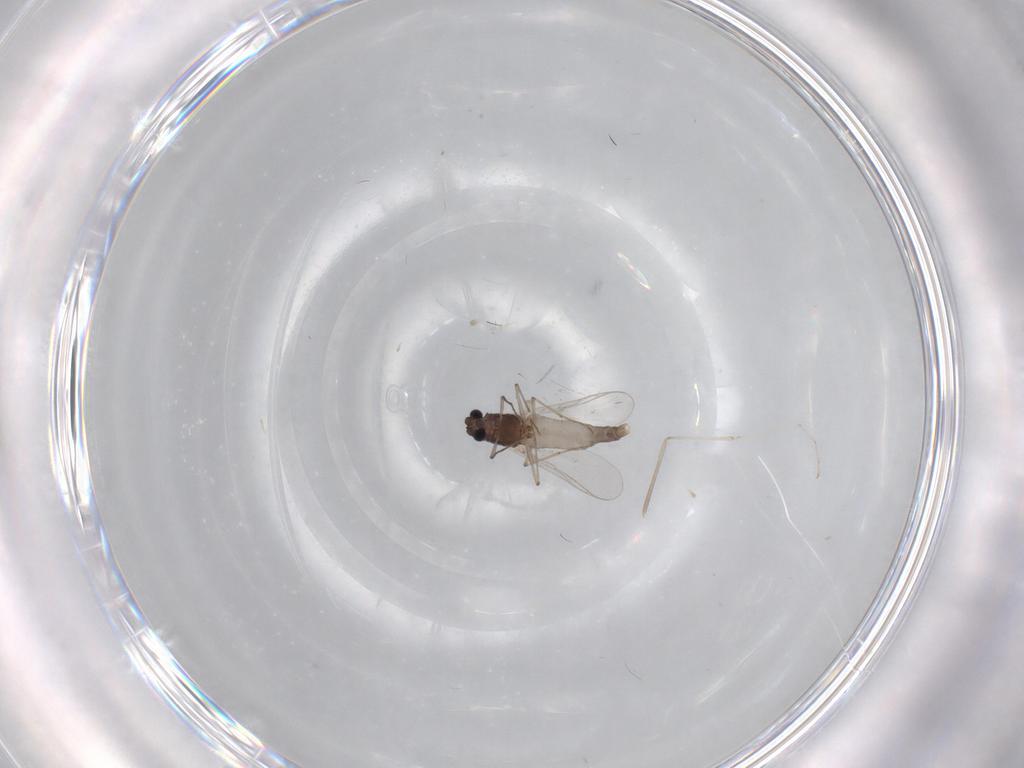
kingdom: Animalia
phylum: Arthropoda
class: Insecta
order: Diptera
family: Cecidomyiidae
